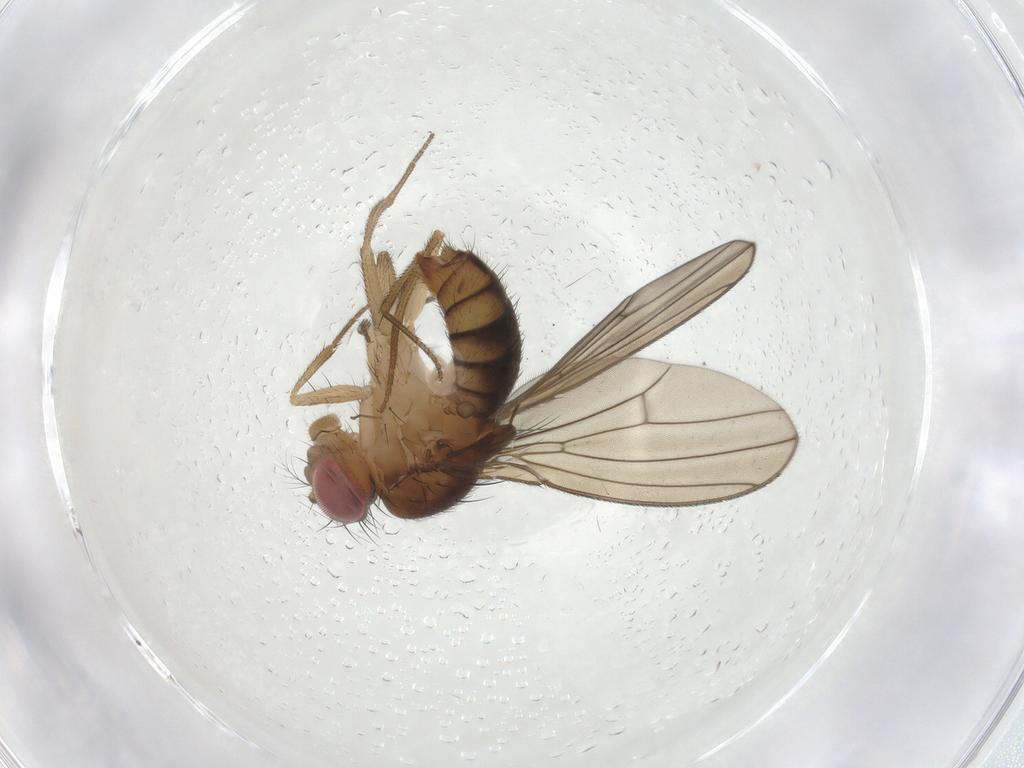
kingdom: Animalia
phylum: Arthropoda
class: Insecta
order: Diptera
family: Drosophilidae
